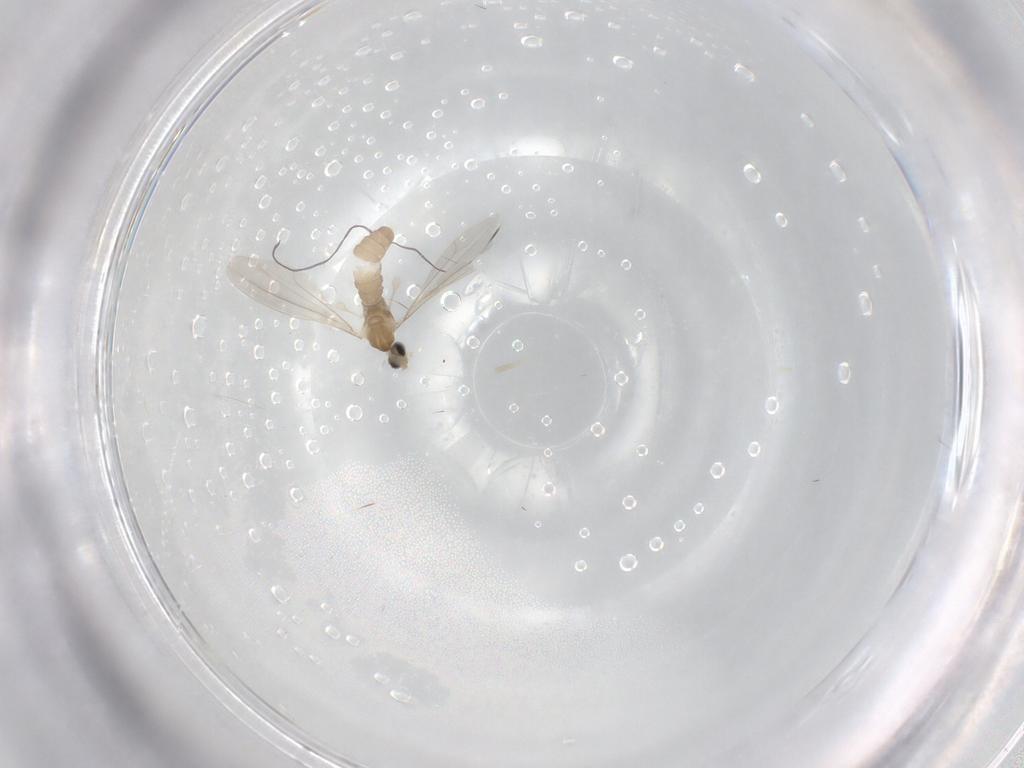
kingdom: Animalia
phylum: Arthropoda
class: Insecta
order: Diptera
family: Cecidomyiidae
